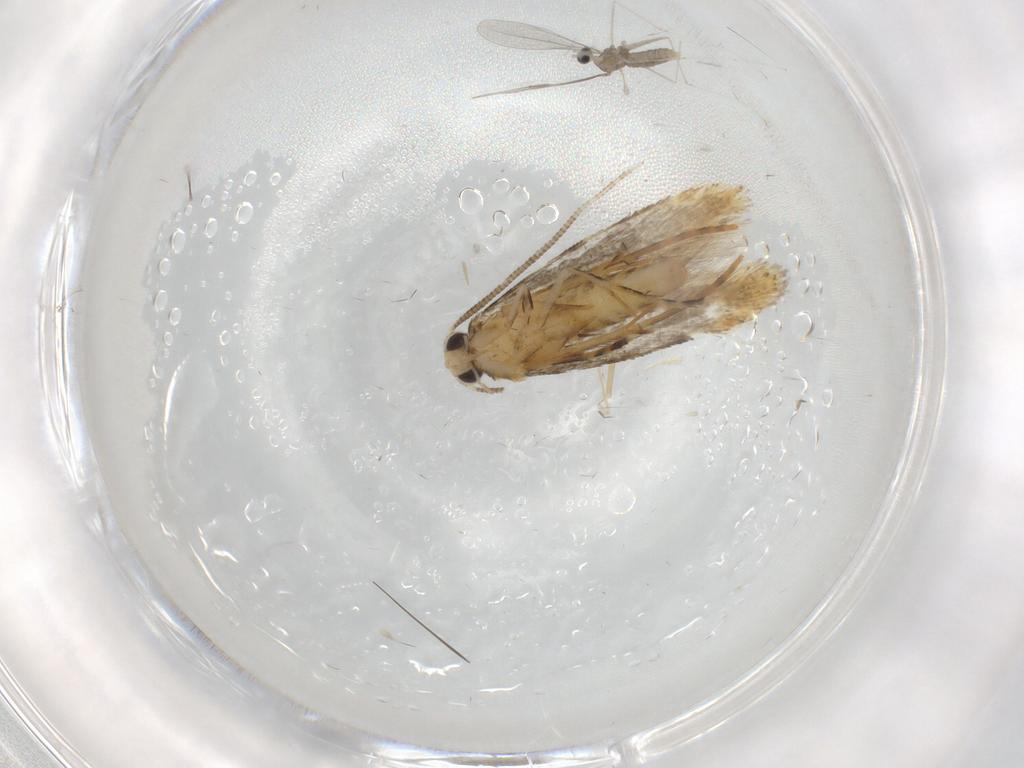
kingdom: Animalia
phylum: Arthropoda
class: Insecta
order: Lepidoptera
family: Tineidae
